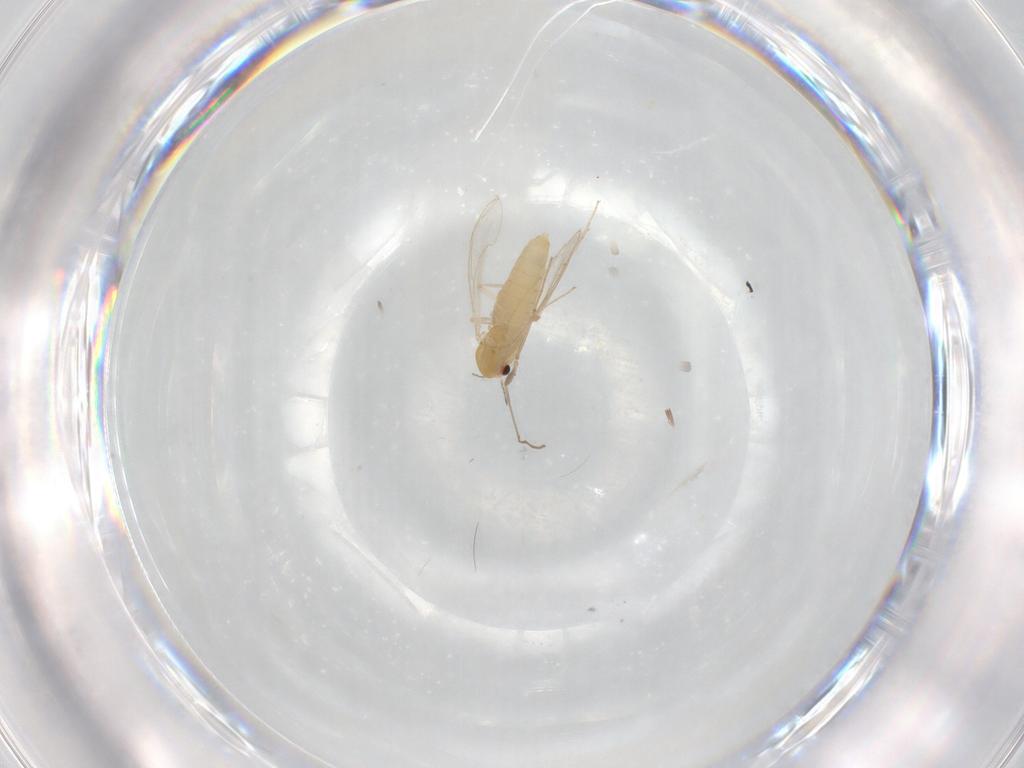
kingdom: Animalia
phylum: Arthropoda
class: Insecta
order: Diptera
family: Chironomidae
